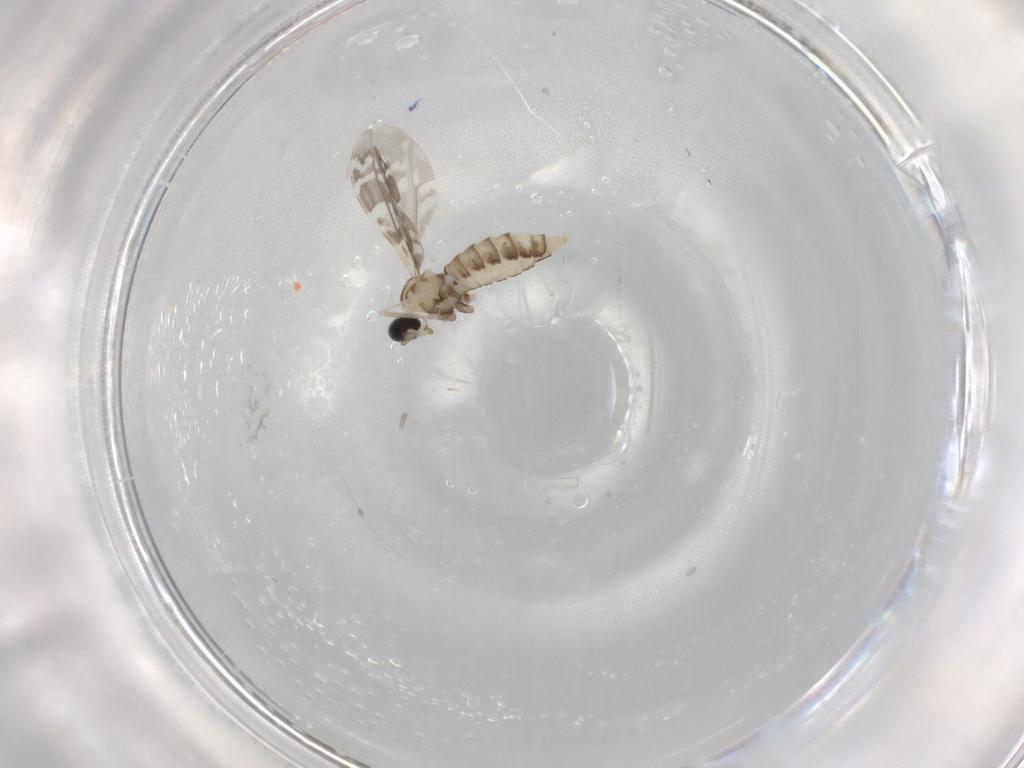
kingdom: Animalia
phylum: Arthropoda
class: Insecta
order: Diptera
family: Cecidomyiidae
